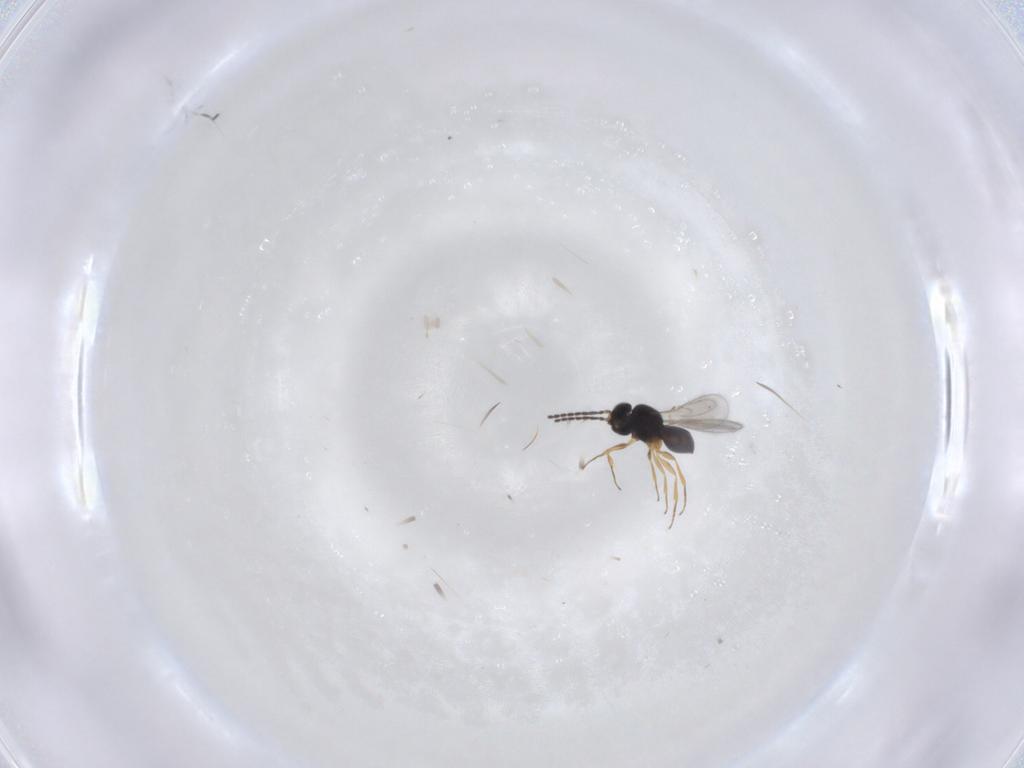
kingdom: Animalia
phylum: Arthropoda
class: Insecta
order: Hymenoptera
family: Scelionidae
